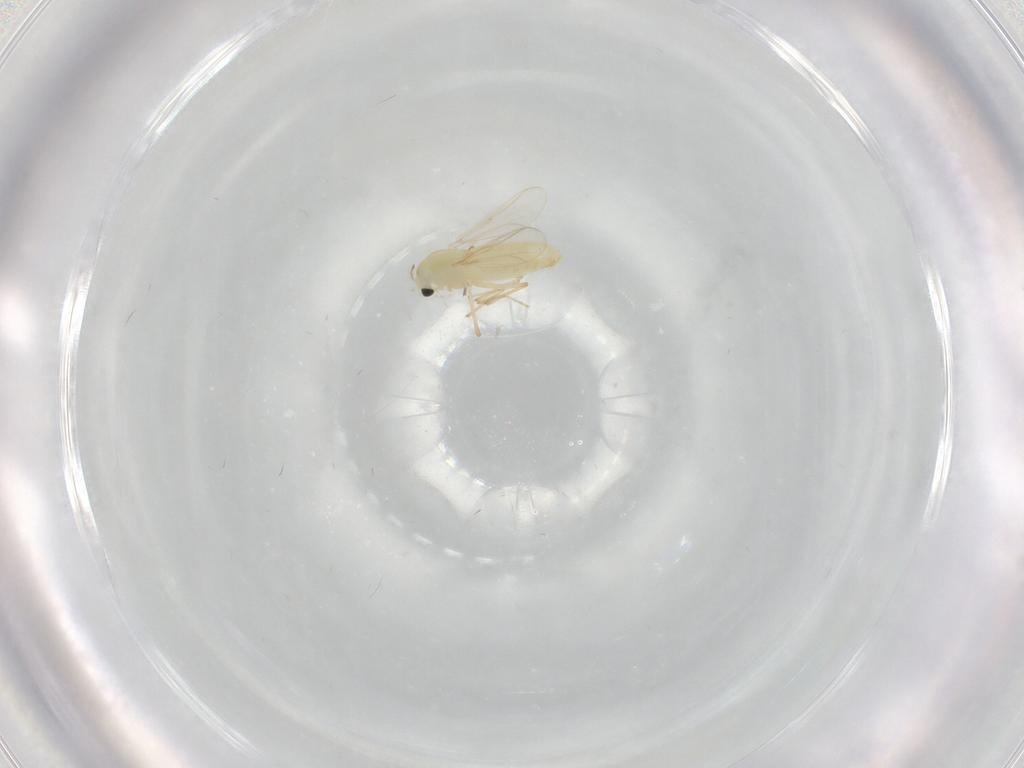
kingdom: Animalia
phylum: Arthropoda
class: Insecta
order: Diptera
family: Chironomidae
